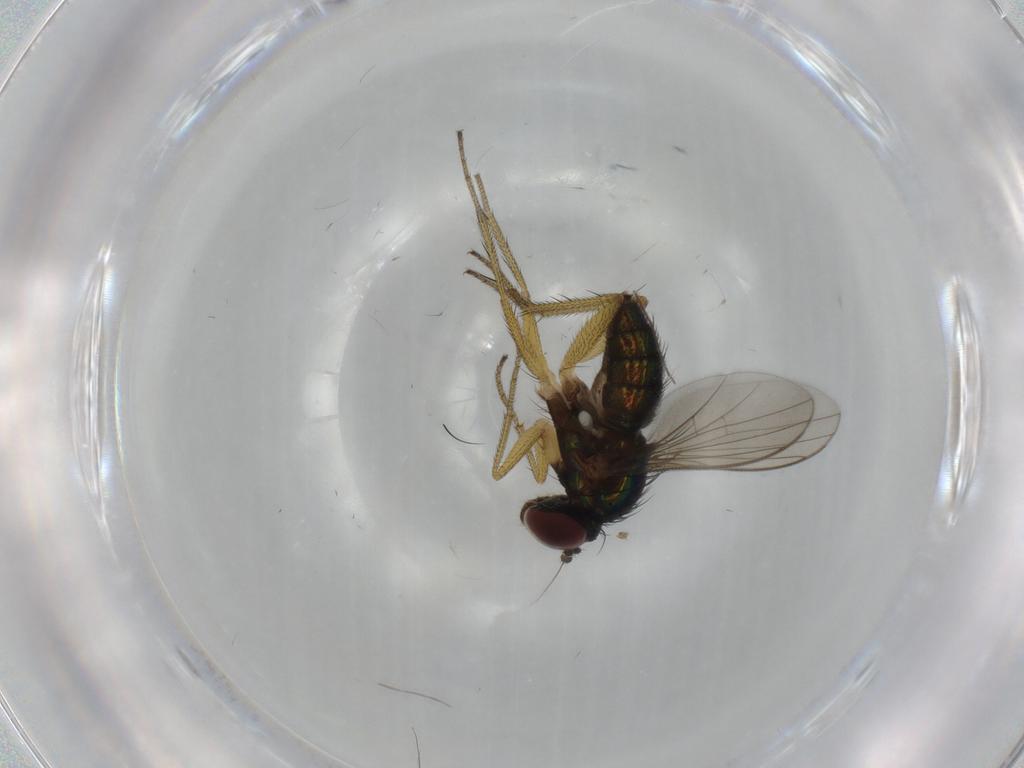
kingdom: Animalia
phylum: Arthropoda
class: Insecta
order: Diptera
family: Dolichopodidae
